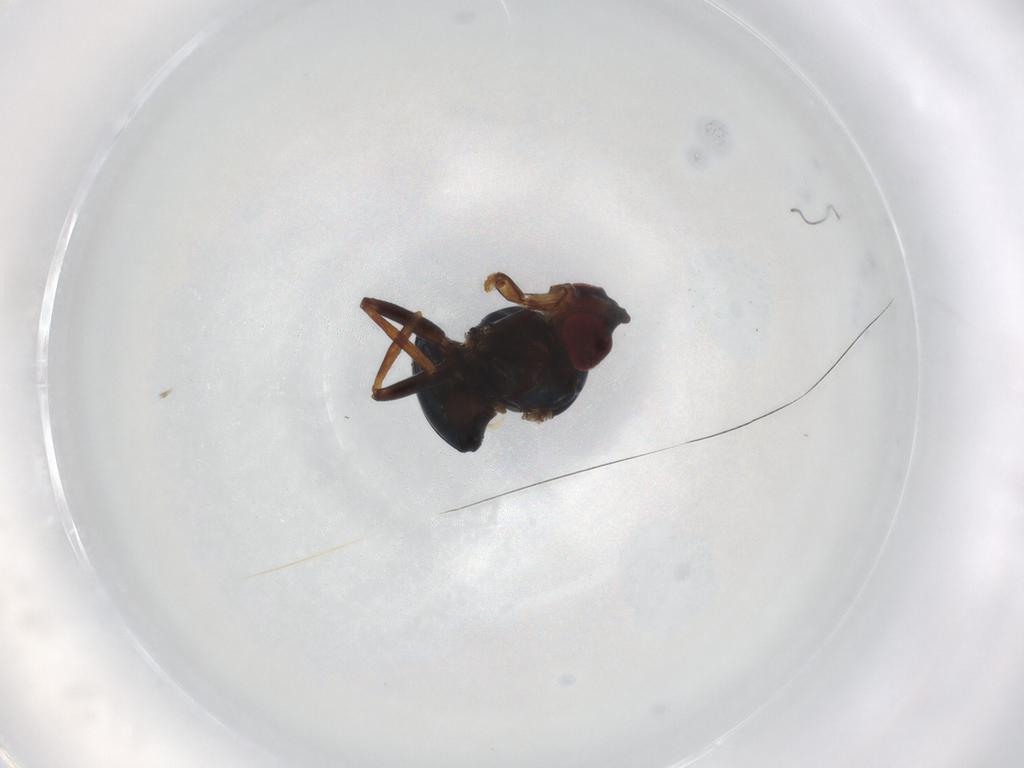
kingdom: Animalia
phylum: Arthropoda
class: Insecta
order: Diptera
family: Ephydridae
